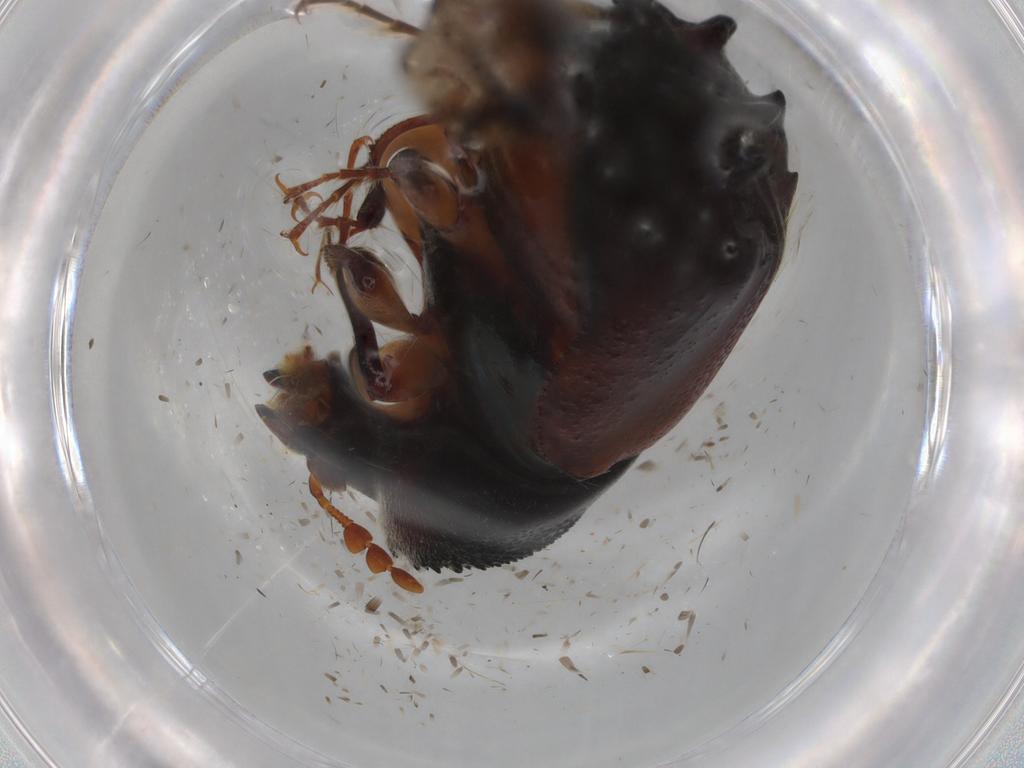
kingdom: Animalia
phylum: Arthropoda
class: Insecta
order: Coleoptera
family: Bostrichidae
